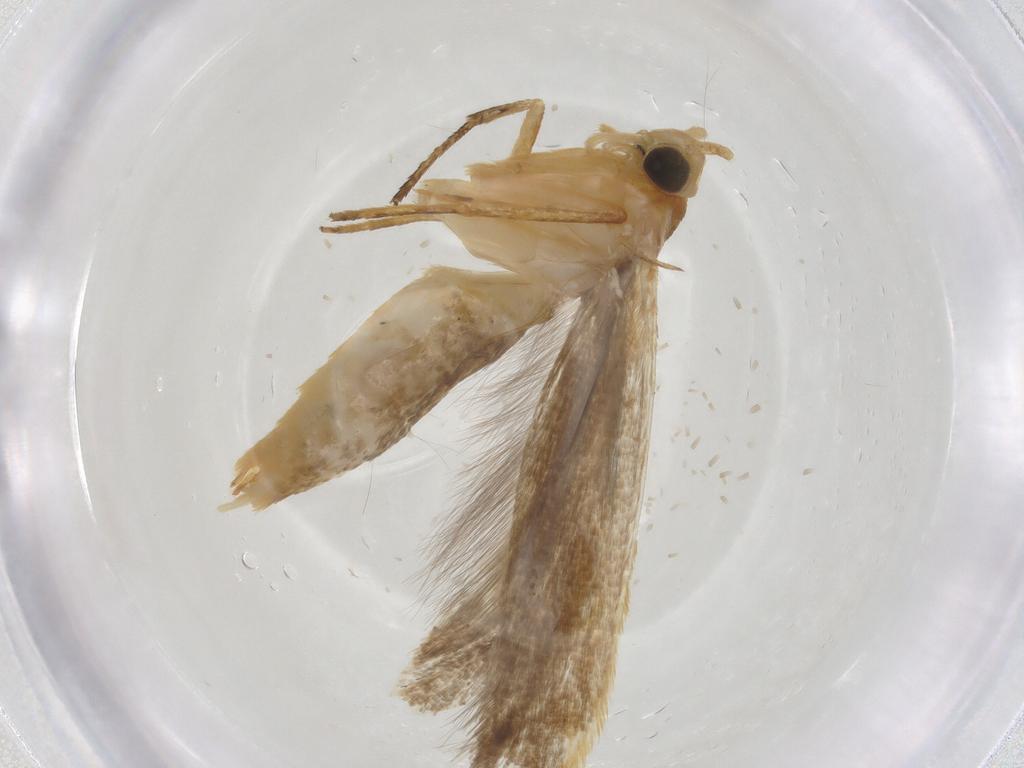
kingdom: Animalia
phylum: Arthropoda
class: Insecta
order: Lepidoptera
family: Elachistidae
